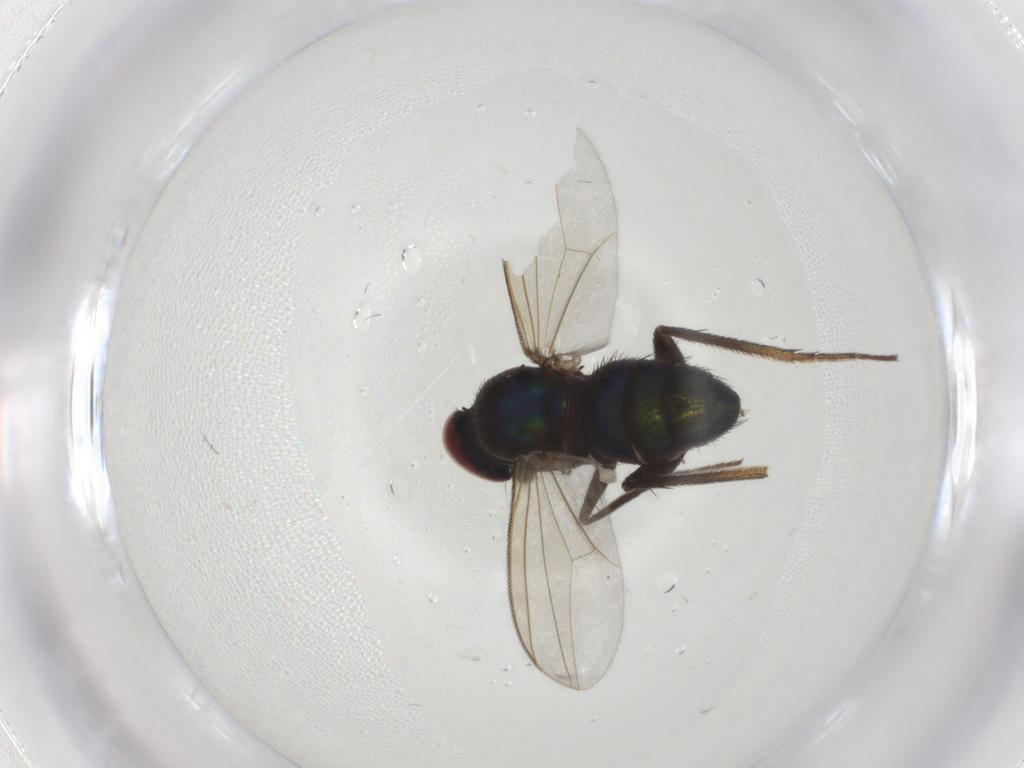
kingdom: Animalia
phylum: Arthropoda
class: Insecta
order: Diptera
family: Dolichopodidae
